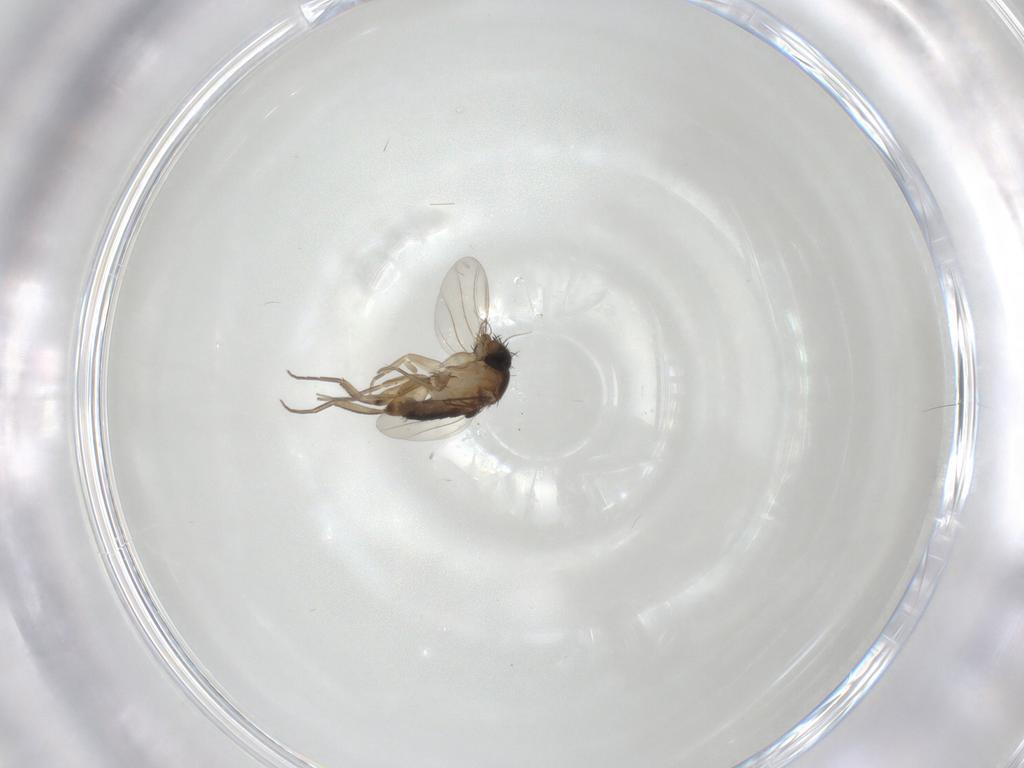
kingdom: Animalia
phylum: Arthropoda
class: Insecta
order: Diptera
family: Phoridae
